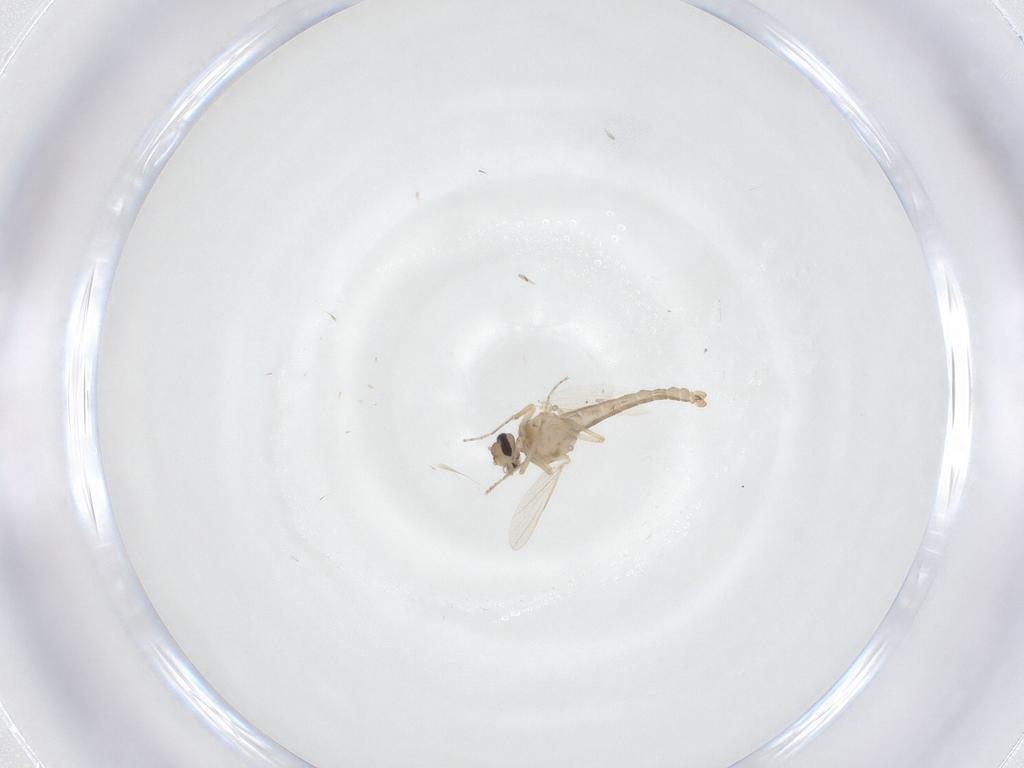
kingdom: Animalia
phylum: Arthropoda
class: Insecta
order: Diptera
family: Ceratopogonidae
